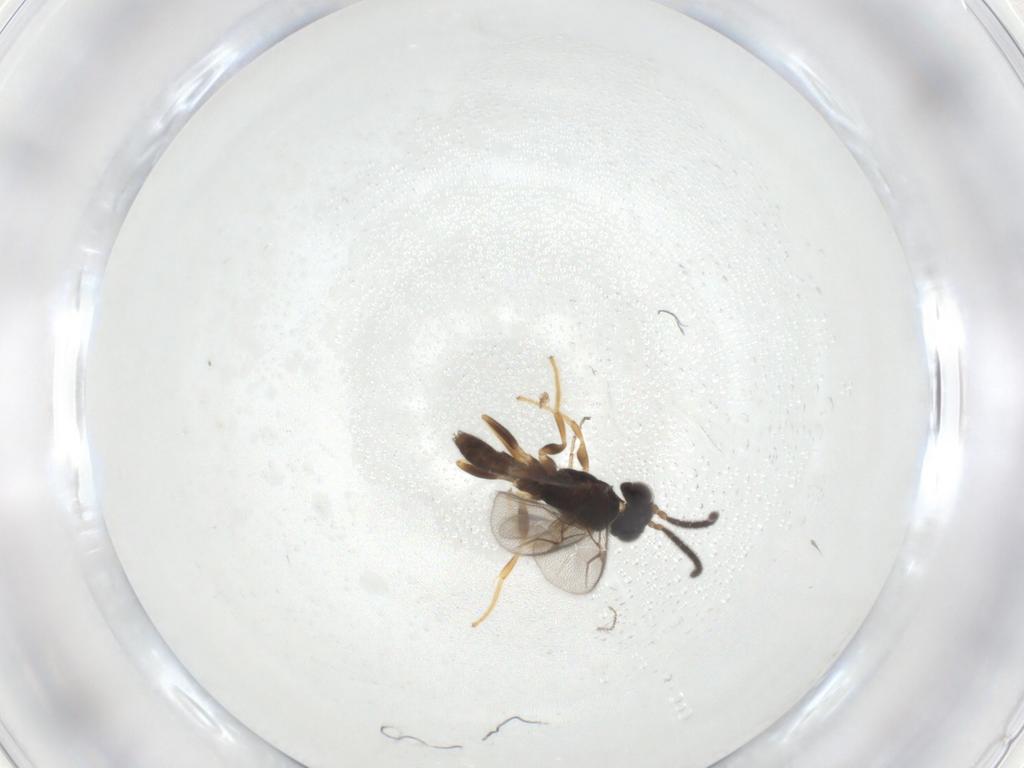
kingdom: Animalia
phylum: Arthropoda
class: Insecta
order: Hymenoptera
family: Dryinidae
